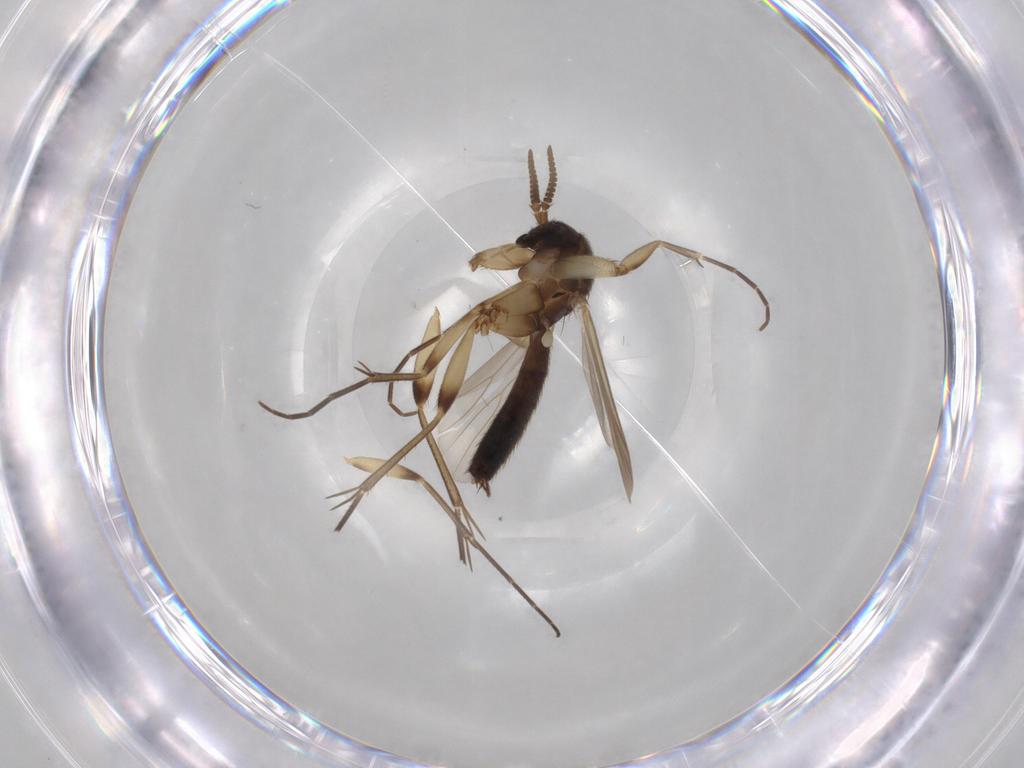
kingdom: Animalia
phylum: Arthropoda
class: Insecta
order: Diptera
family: Mycetophilidae
